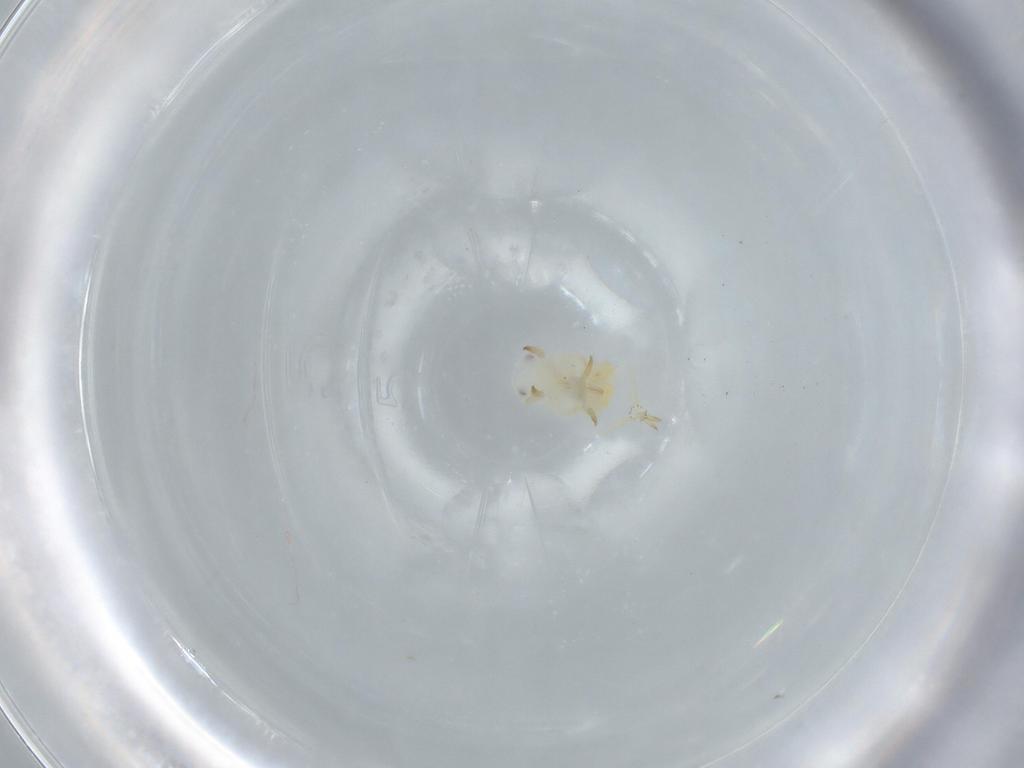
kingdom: Animalia
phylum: Arthropoda
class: Insecta
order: Hemiptera
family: Flatidae
